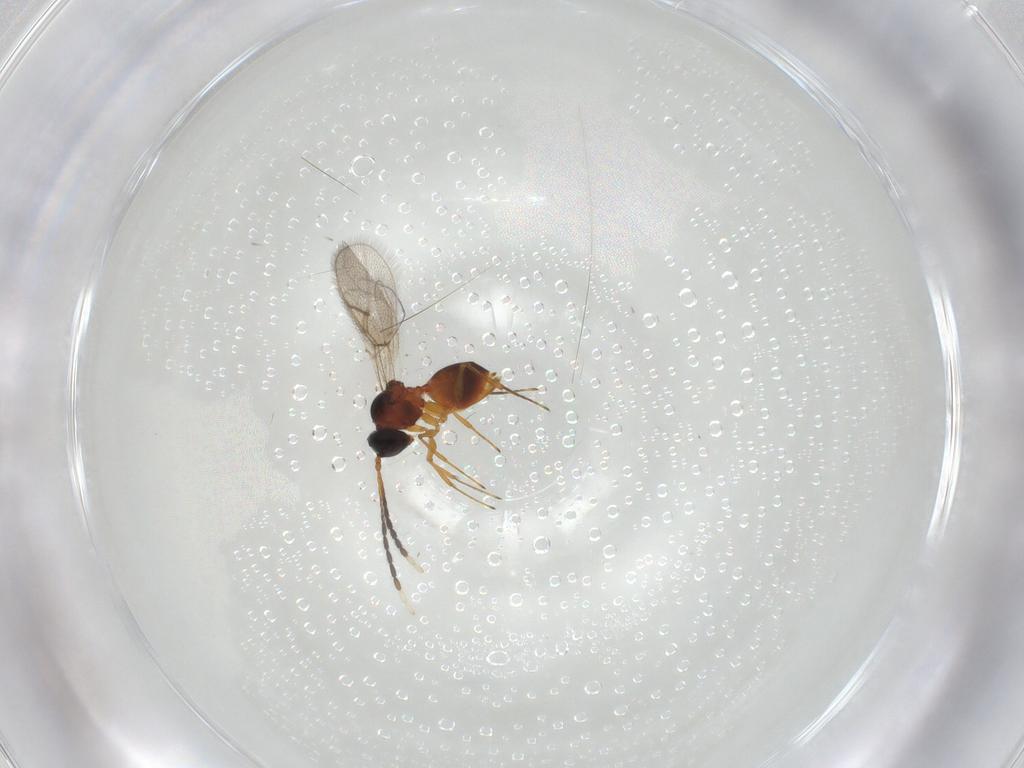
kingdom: Animalia
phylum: Arthropoda
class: Insecta
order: Hymenoptera
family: Figitidae
